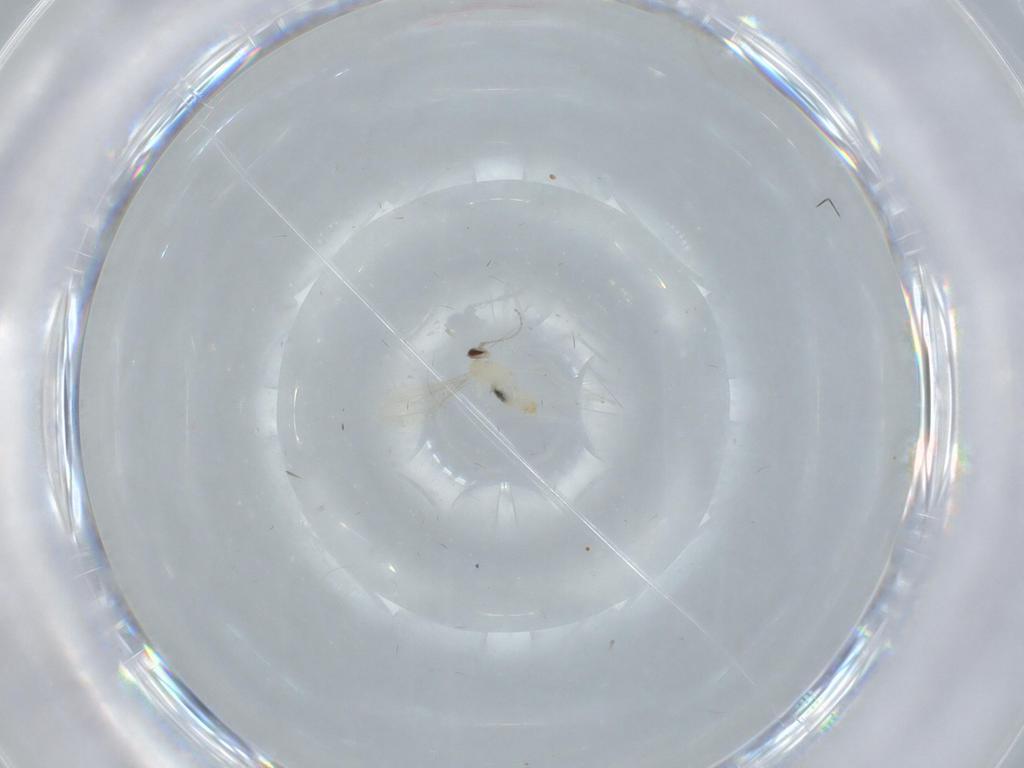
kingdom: Animalia
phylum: Arthropoda
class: Insecta
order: Diptera
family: Cecidomyiidae
